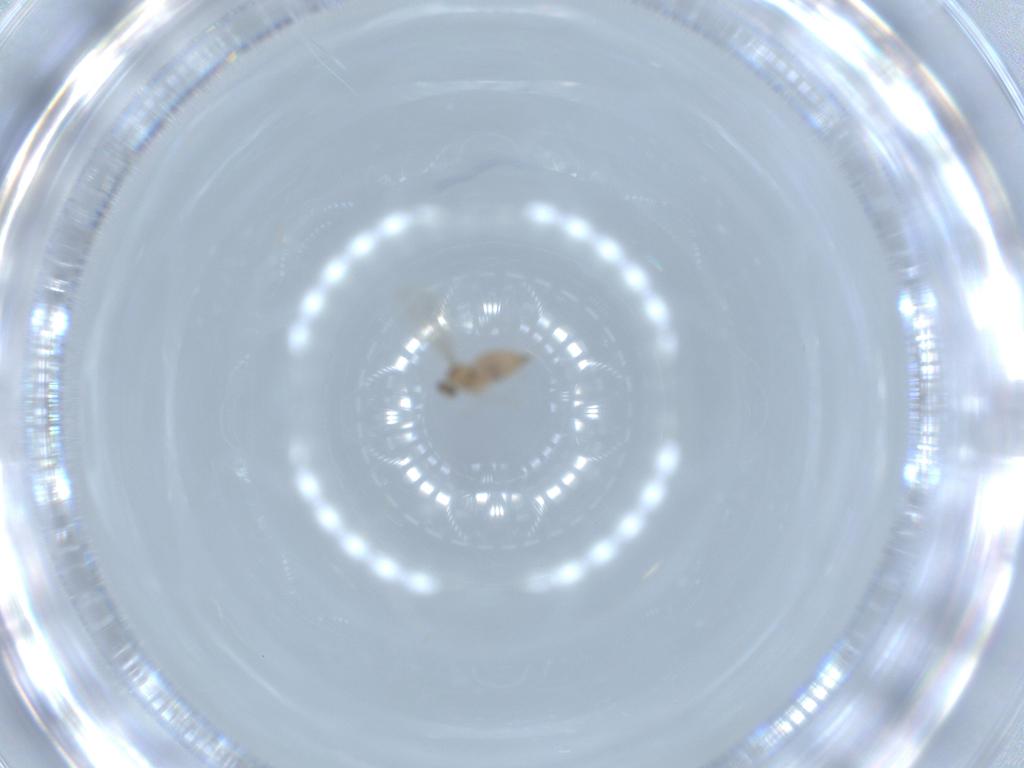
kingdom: Animalia
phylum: Arthropoda
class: Insecta
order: Diptera
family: Cecidomyiidae
